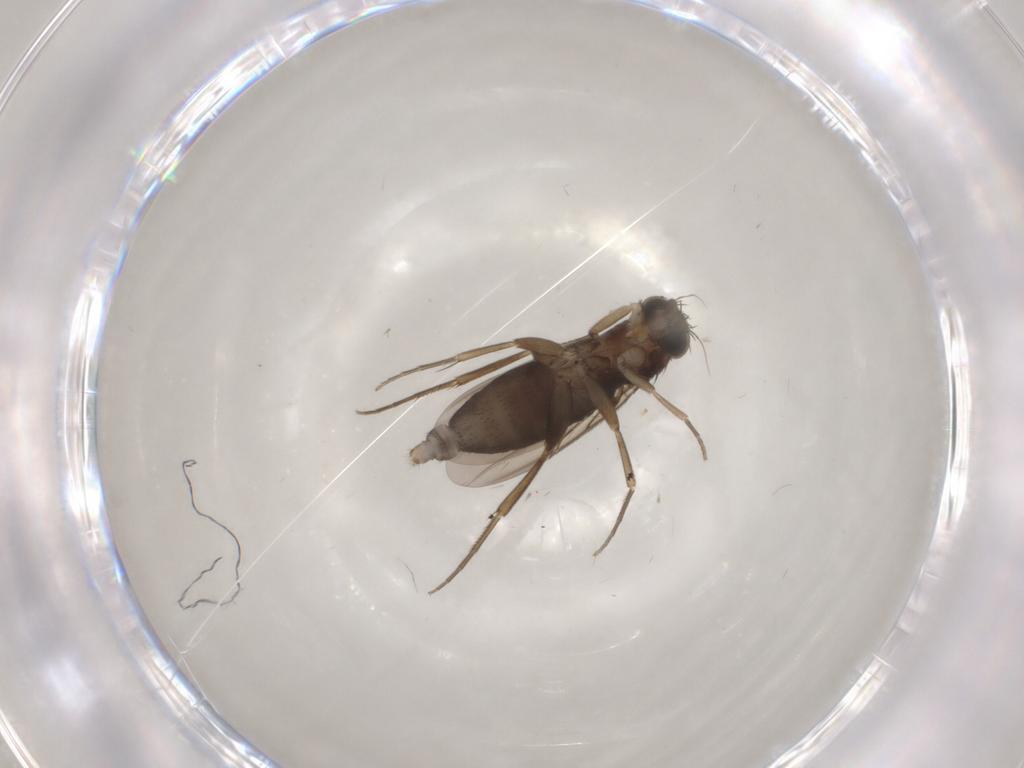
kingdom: Animalia
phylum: Arthropoda
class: Insecta
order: Diptera
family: Phoridae
